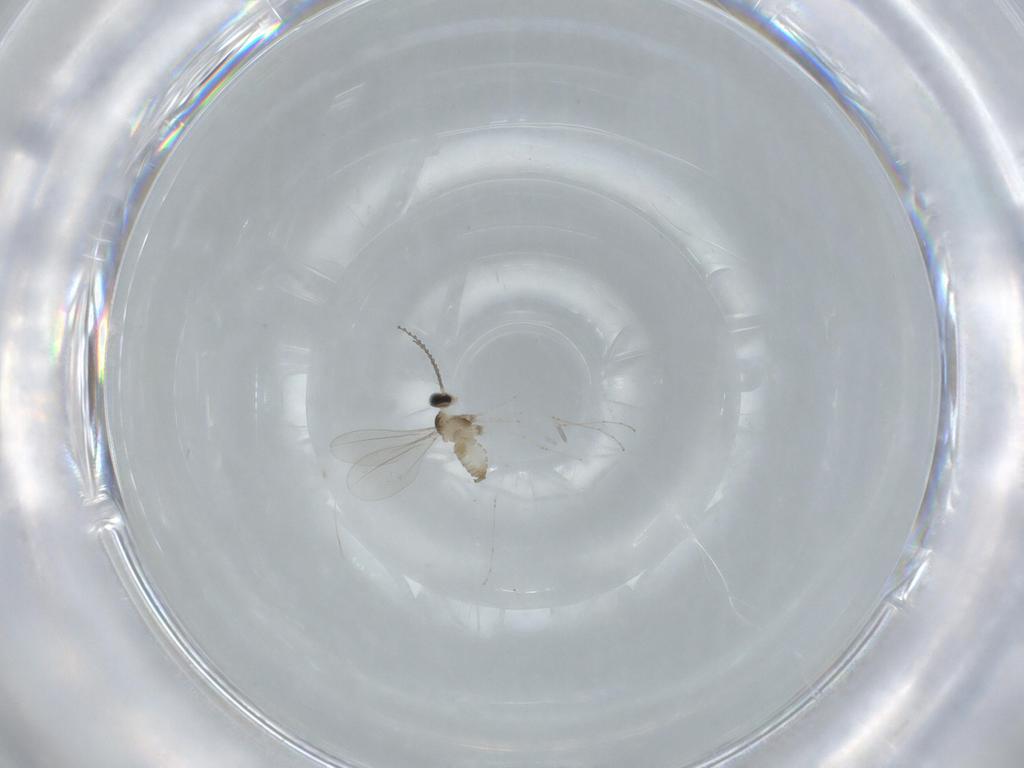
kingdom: Animalia
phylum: Arthropoda
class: Insecta
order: Diptera
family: Cecidomyiidae
